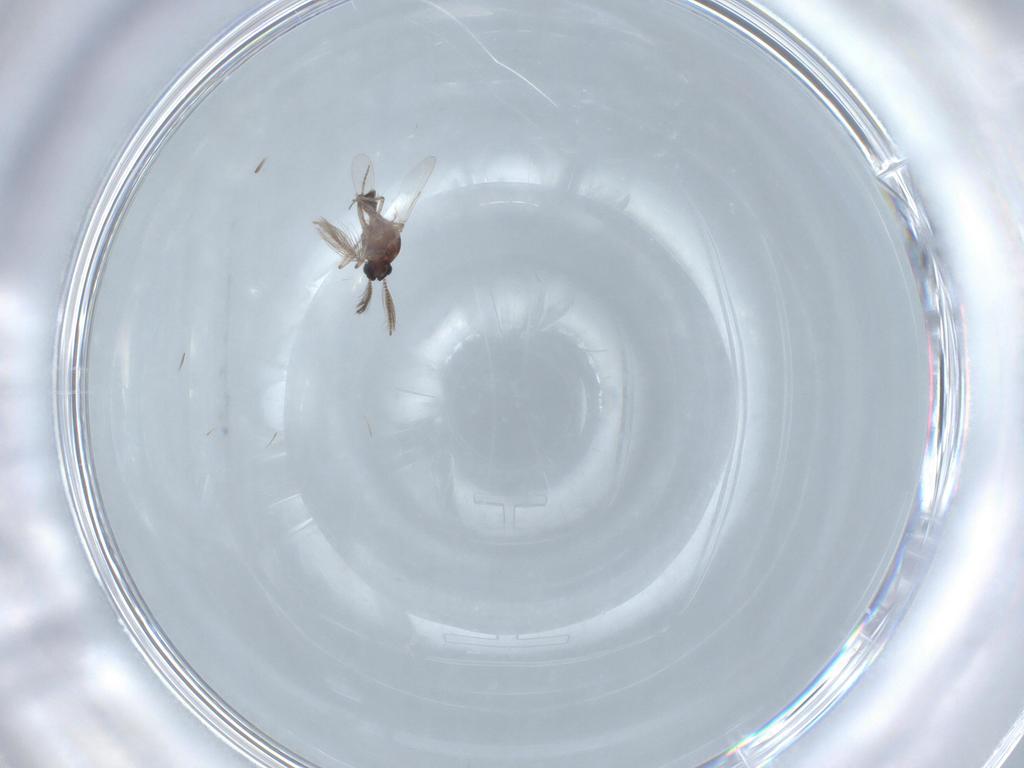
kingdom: Animalia
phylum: Arthropoda
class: Insecta
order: Diptera
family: Ceratopogonidae
